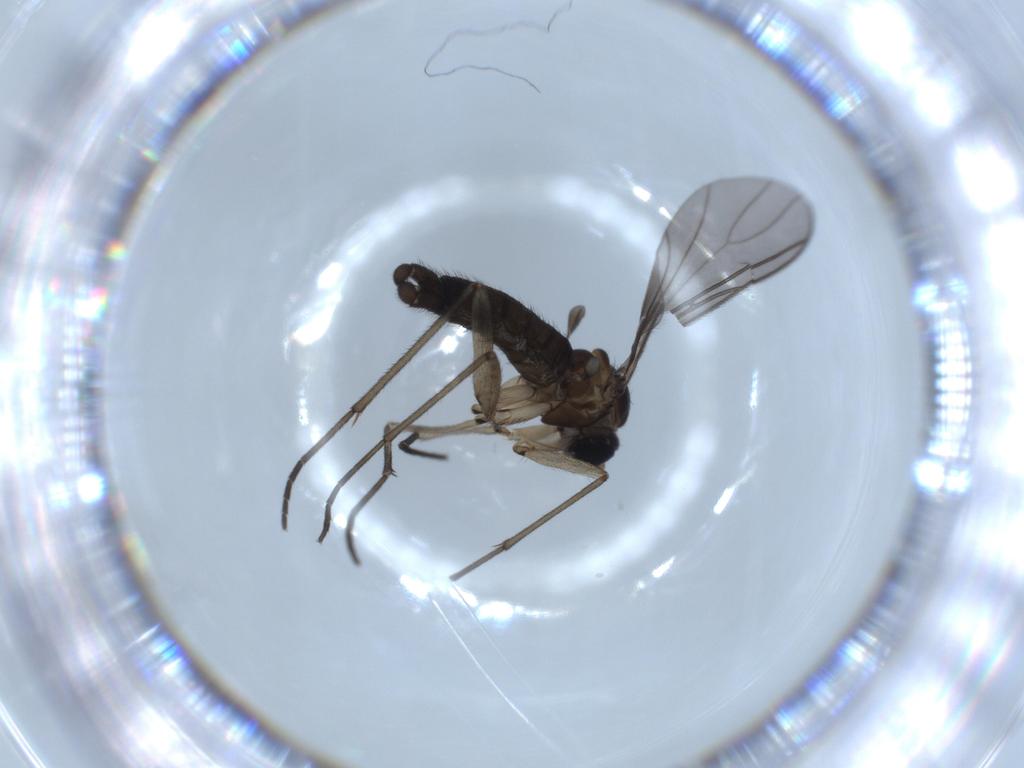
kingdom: Animalia
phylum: Arthropoda
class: Insecta
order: Diptera
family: Sciaridae
